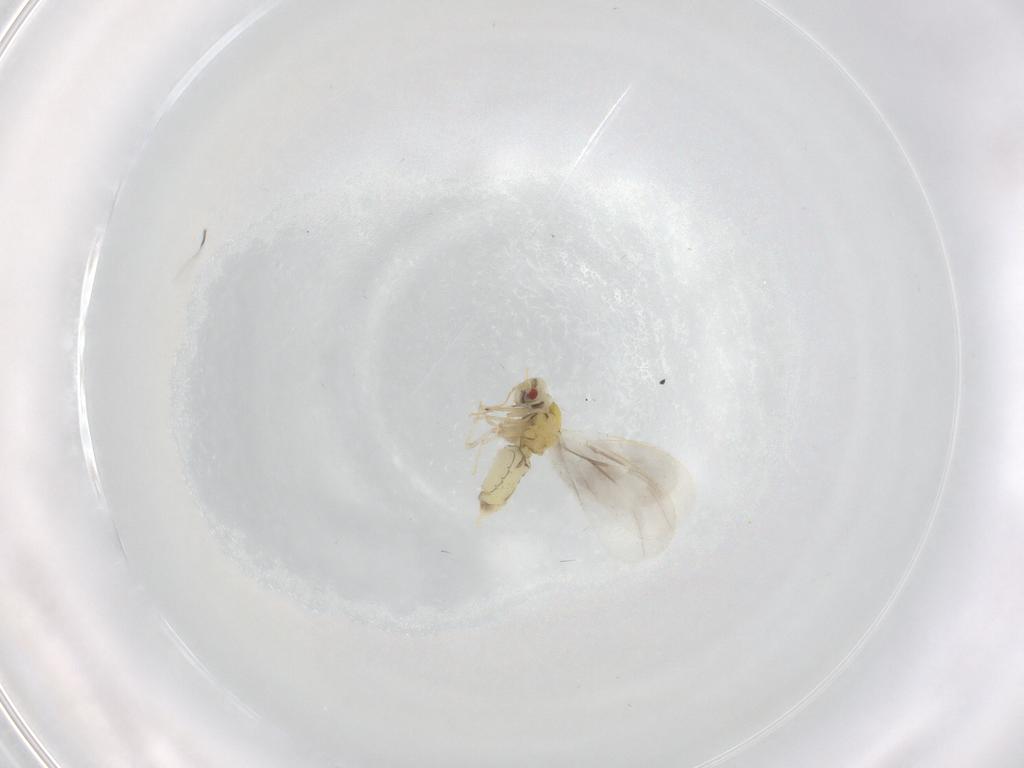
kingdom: Animalia
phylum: Arthropoda
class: Insecta
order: Hemiptera
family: Aleyrodidae
